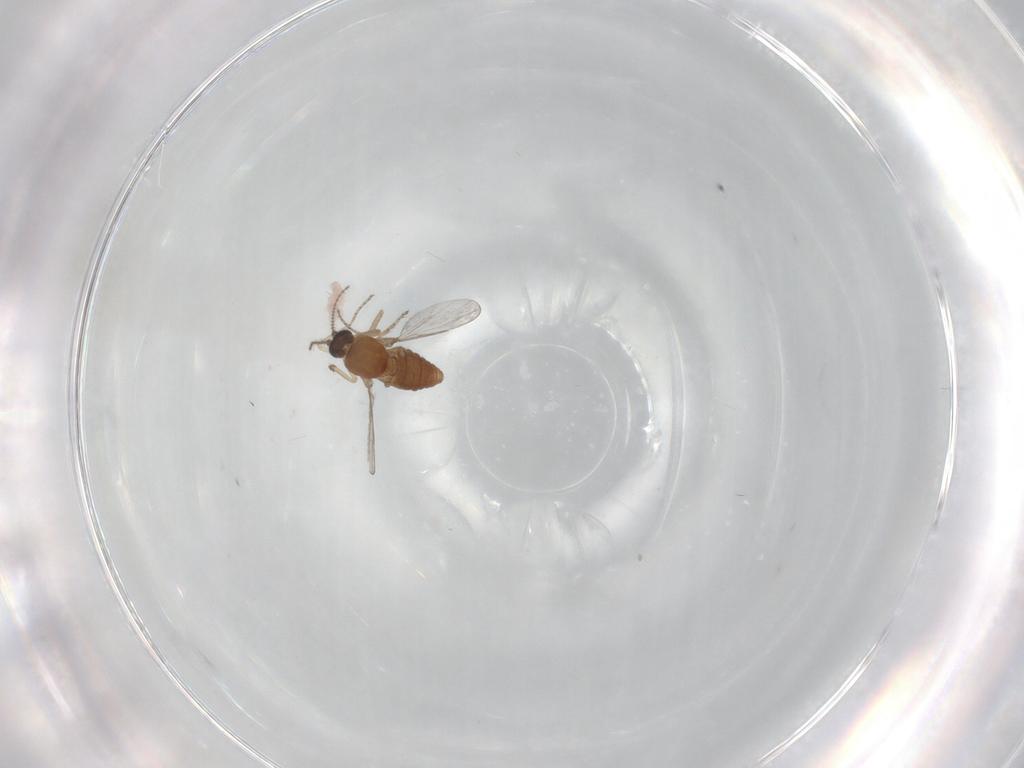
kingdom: Animalia
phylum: Arthropoda
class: Insecta
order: Diptera
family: Ceratopogonidae
